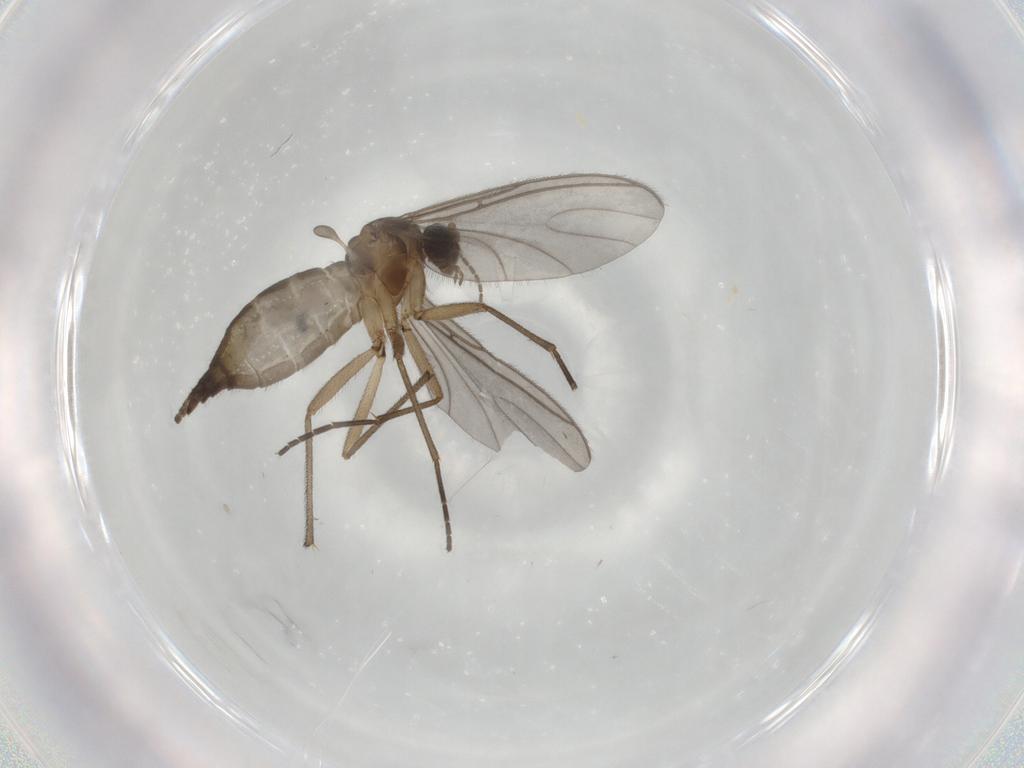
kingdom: Animalia
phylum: Arthropoda
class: Insecta
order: Diptera
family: Sciaridae
